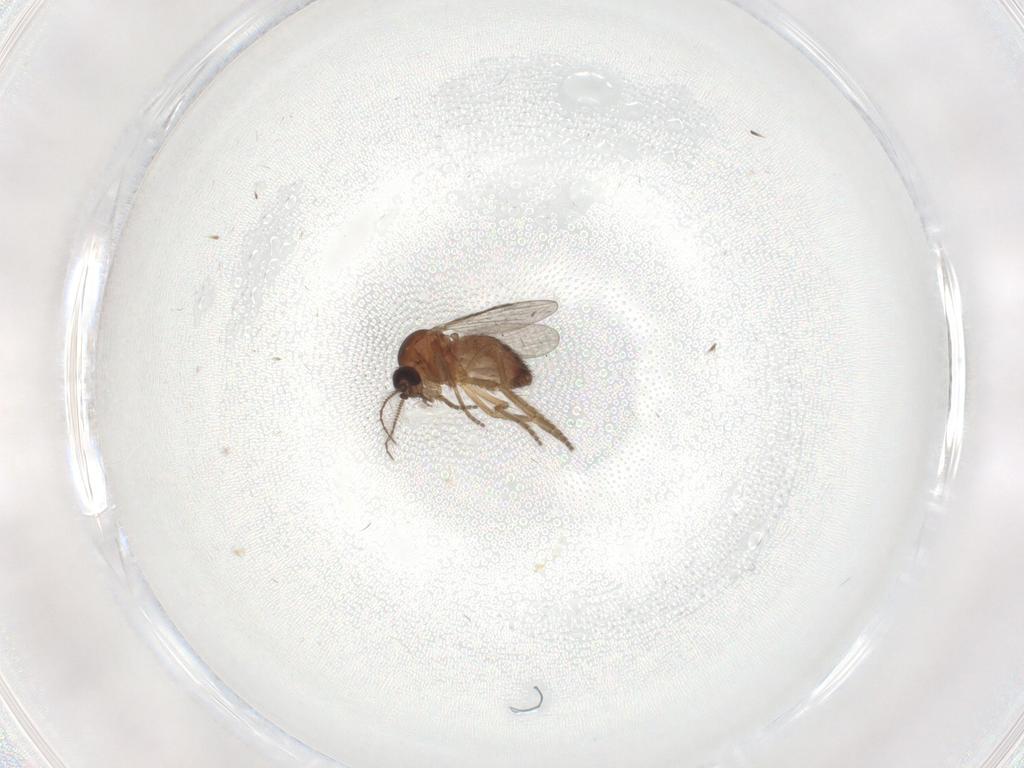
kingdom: Animalia
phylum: Arthropoda
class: Insecta
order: Diptera
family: Ceratopogonidae
